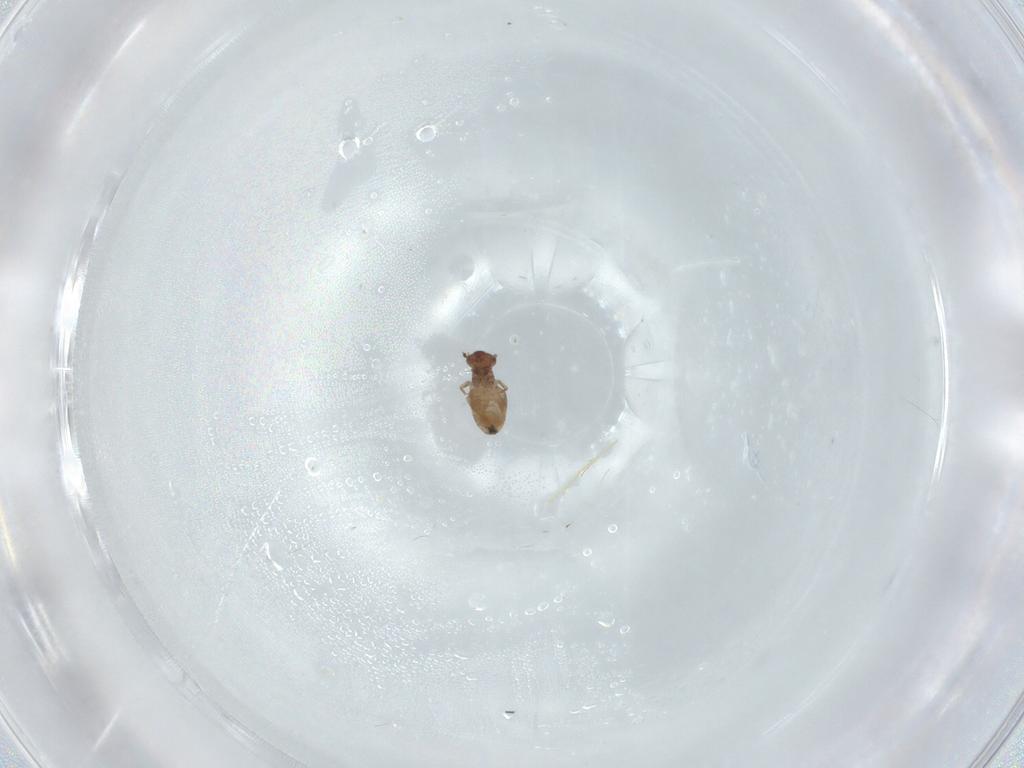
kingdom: Animalia
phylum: Arthropoda
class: Insecta
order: Psocodea
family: Liposcelididae
